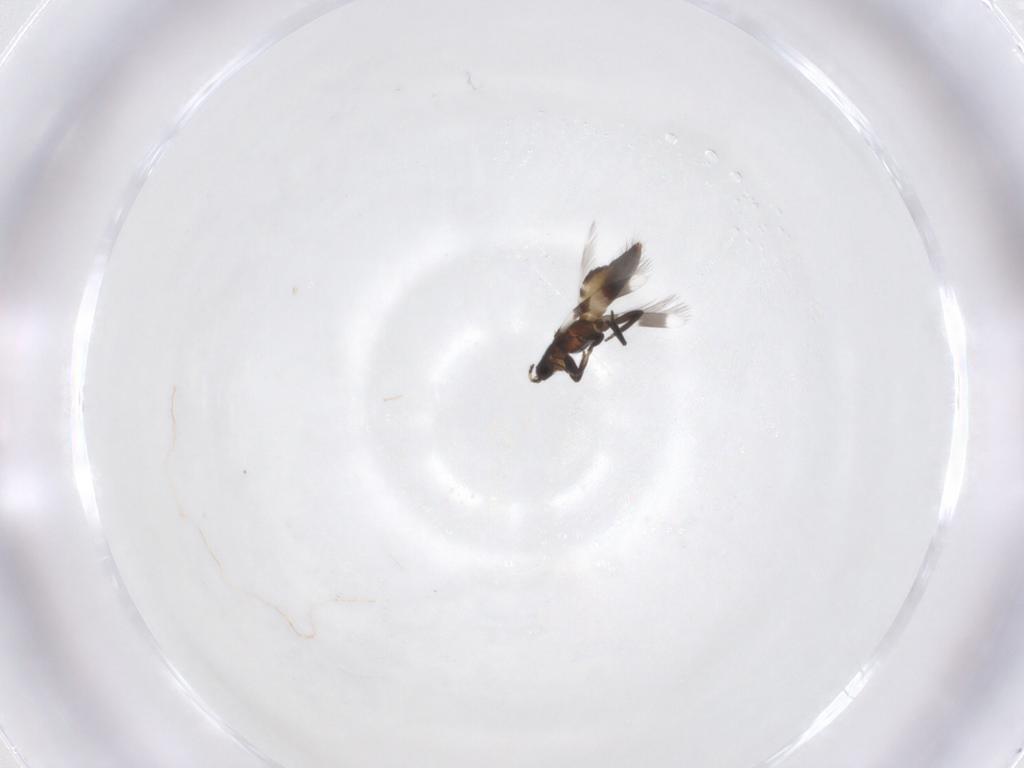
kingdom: Animalia
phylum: Arthropoda
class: Insecta
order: Thysanoptera
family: Aeolothripidae
